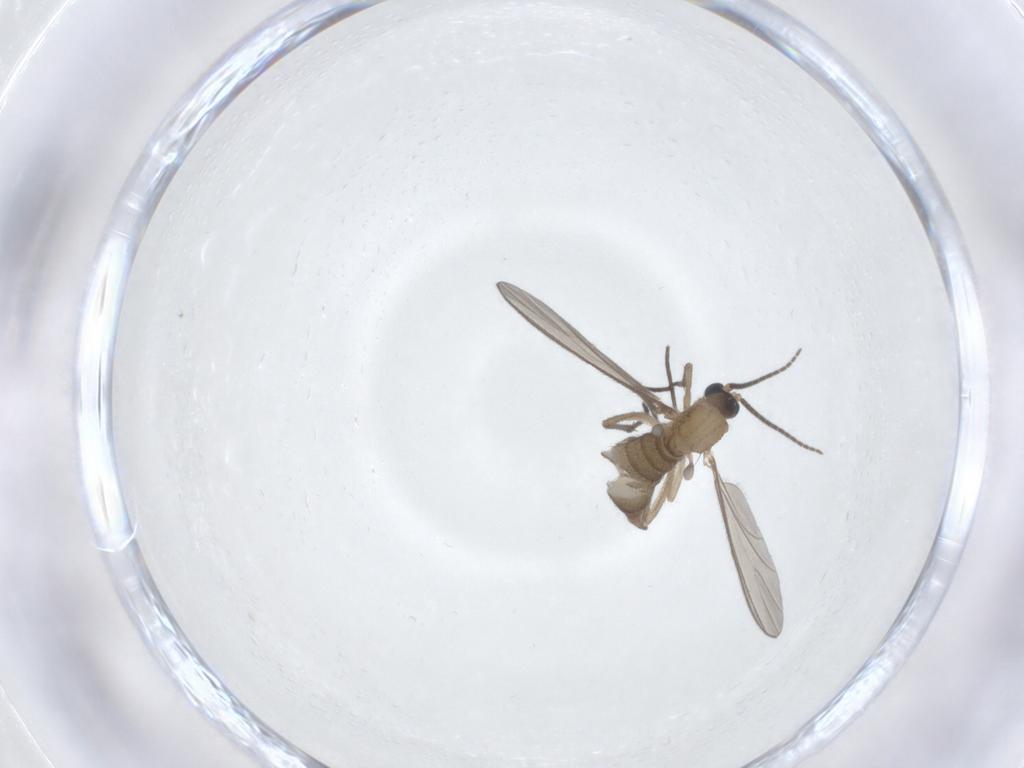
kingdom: Animalia
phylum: Arthropoda
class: Insecta
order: Diptera
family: Sciaridae
